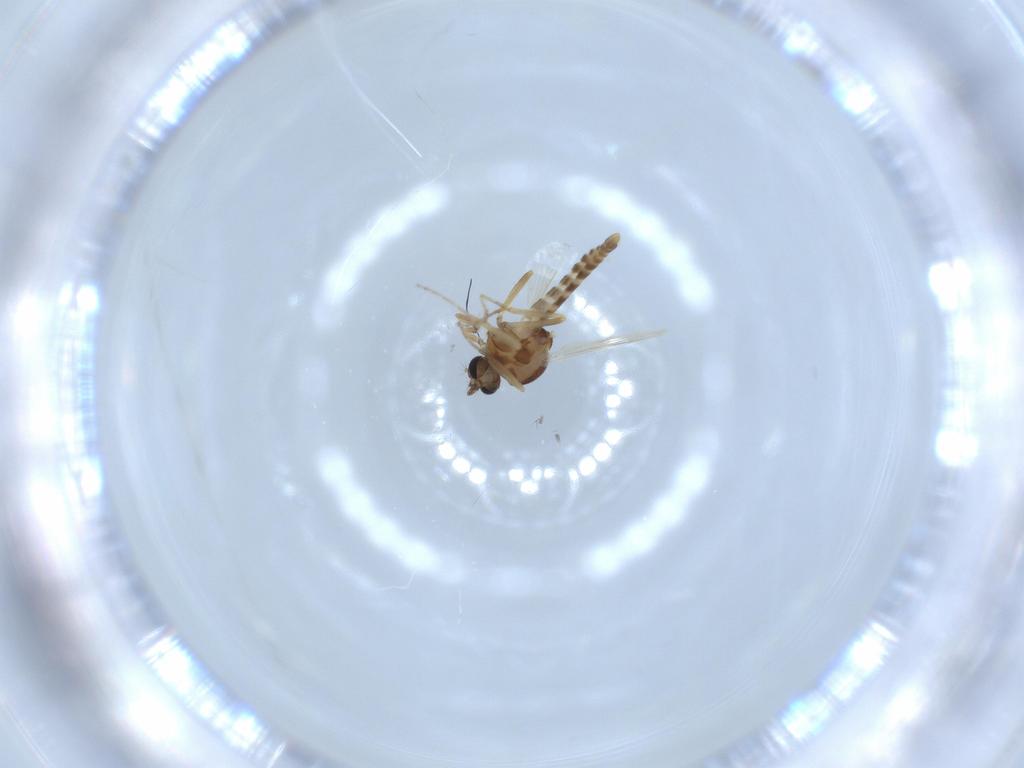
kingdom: Animalia
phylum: Arthropoda
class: Insecta
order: Diptera
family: Ceratopogonidae
